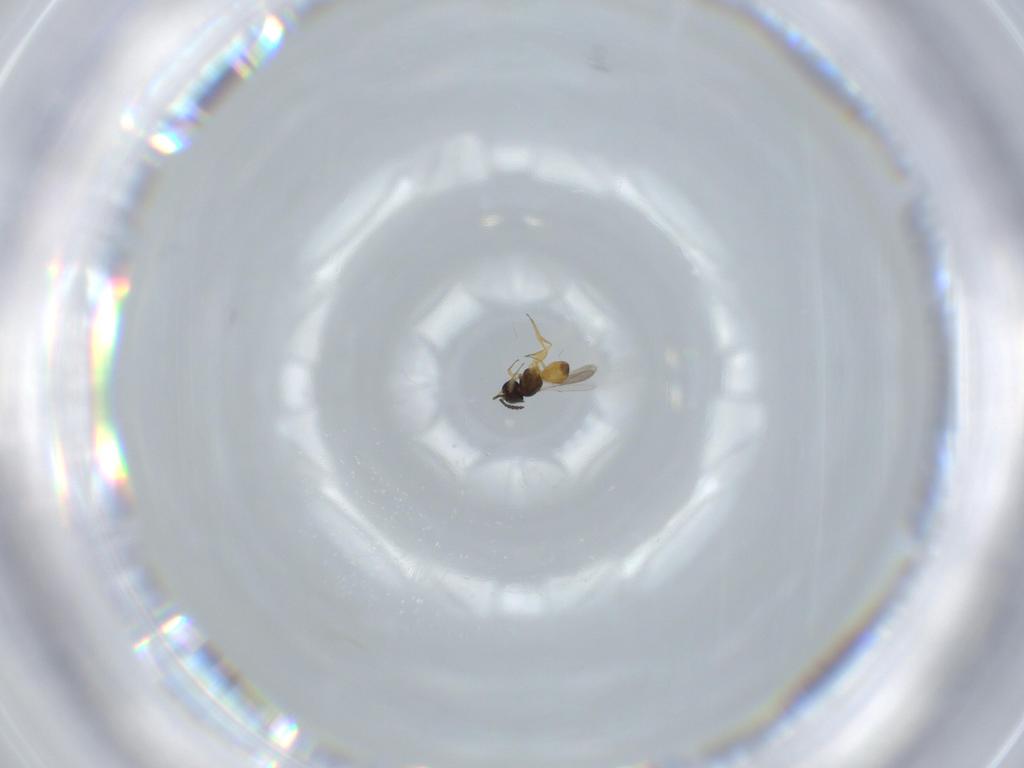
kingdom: Animalia
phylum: Arthropoda
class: Insecta
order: Hymenoptera
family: Scelionidae
